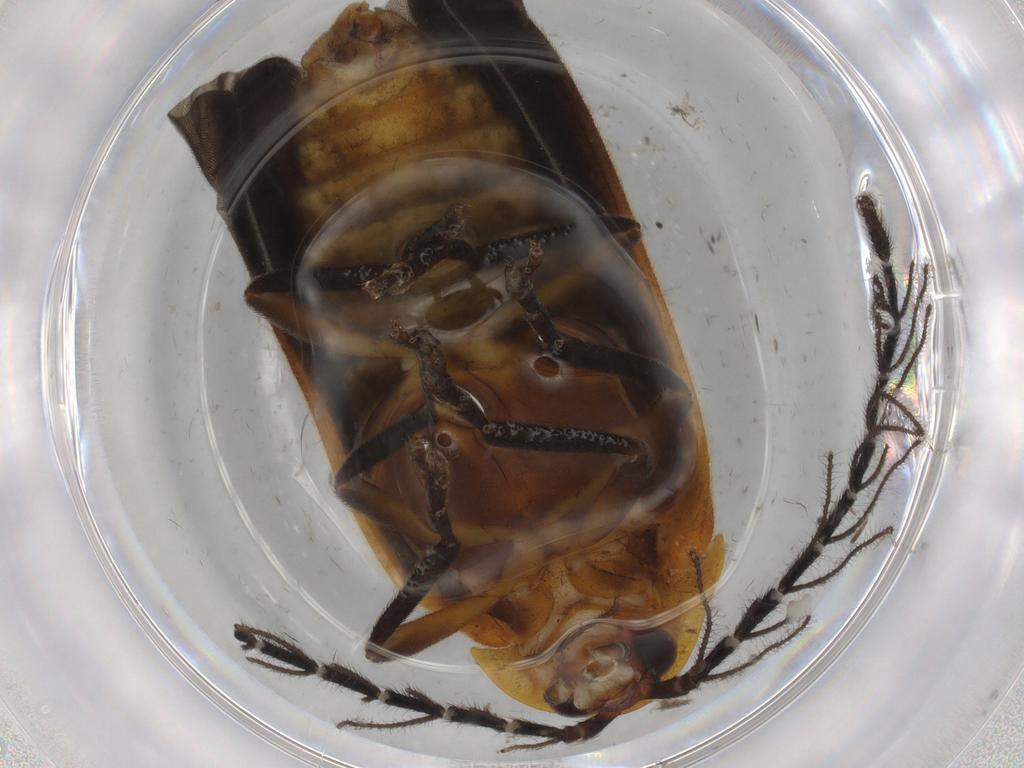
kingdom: Animalia
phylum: Arthropoda
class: Insecta
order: Coleoptera
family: Lampyridae
